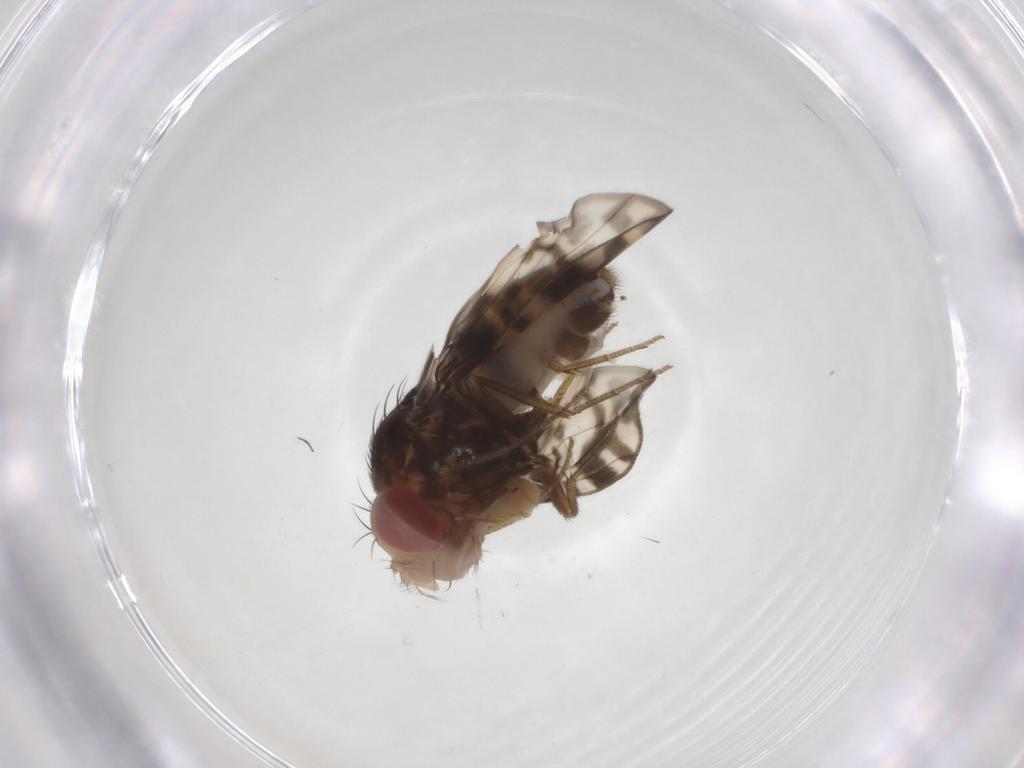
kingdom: Animalia
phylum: Arthropoda
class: Insecta
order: Diptera
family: Drosophilidae
